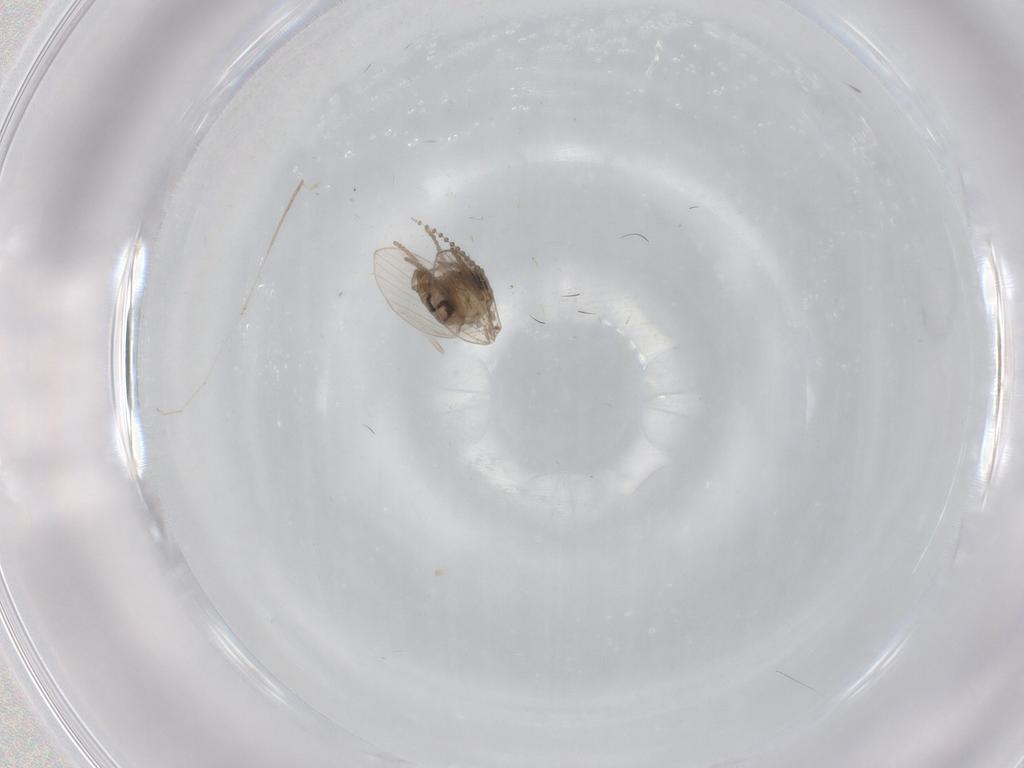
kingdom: Animalia
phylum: Arthropoda
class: Insecta
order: Diptera
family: Psychodidae
